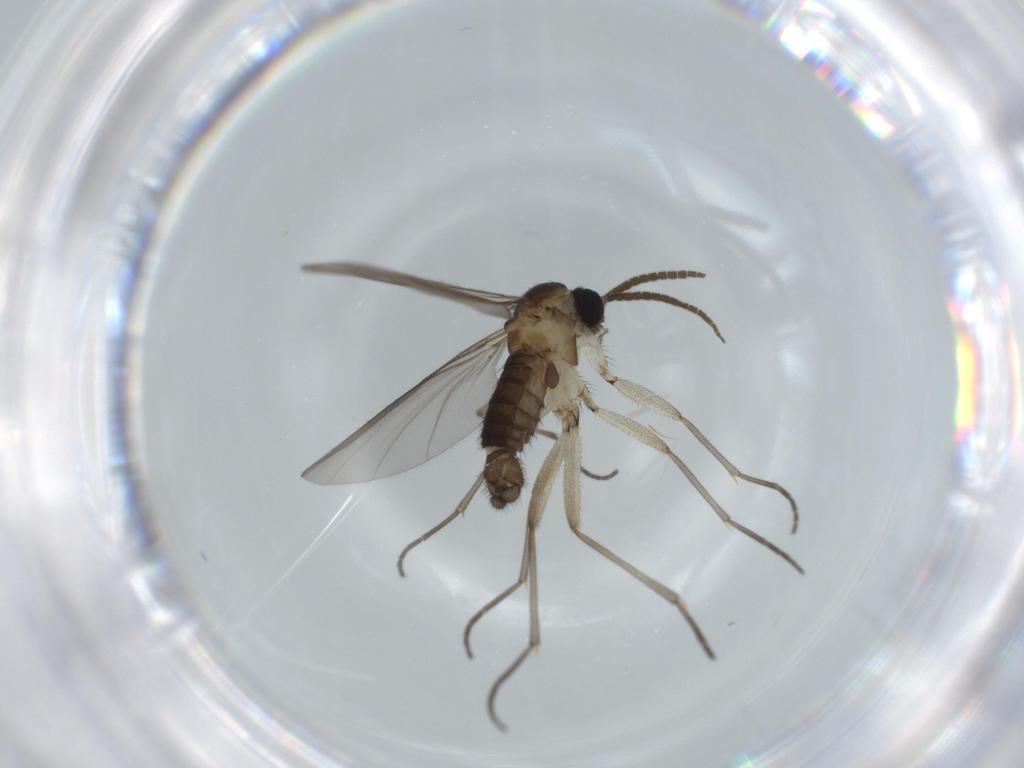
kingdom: Animalia
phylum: Arthropoda
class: Insecta
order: Diptera
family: Sciaridae
